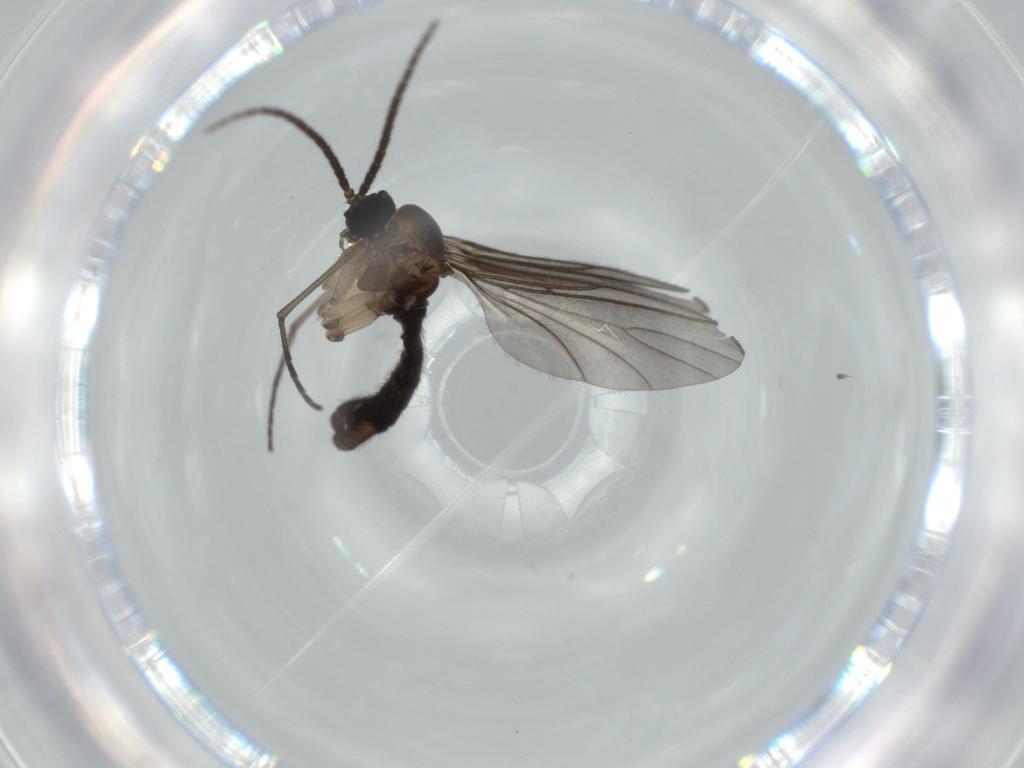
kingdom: Animalia
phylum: Arthropoda
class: Insecta
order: Diptera
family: Sciaridae
